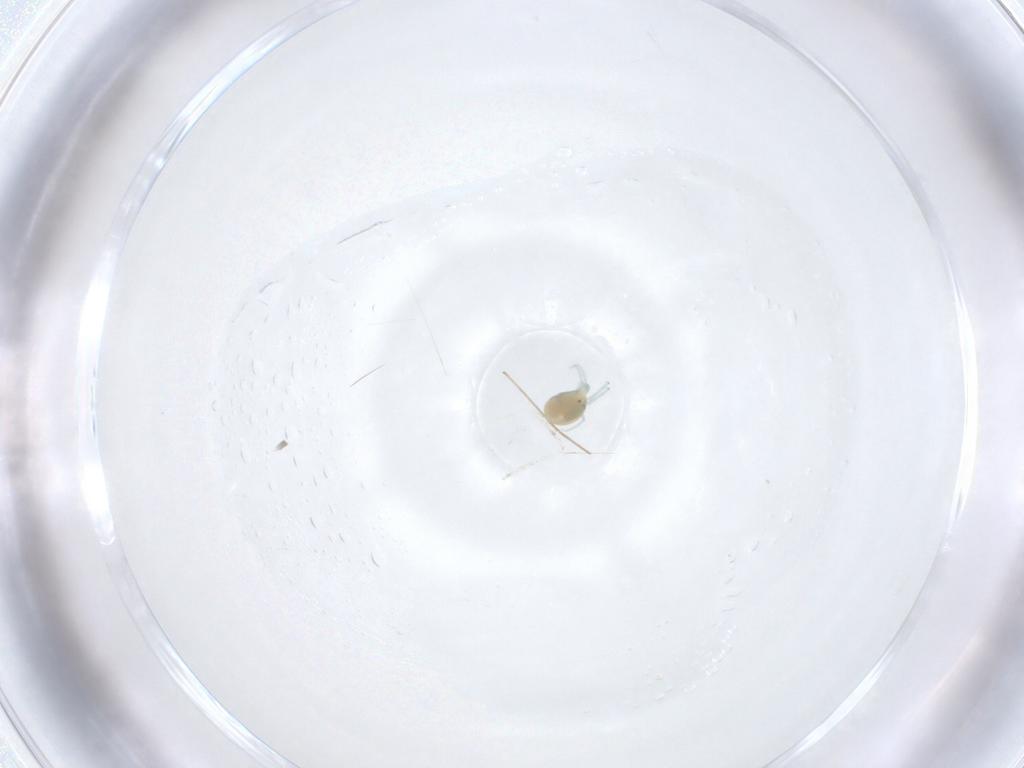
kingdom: Animalia
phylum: Arthropoda
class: Arachnida
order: Trombidiformes
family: Limnesiidae
